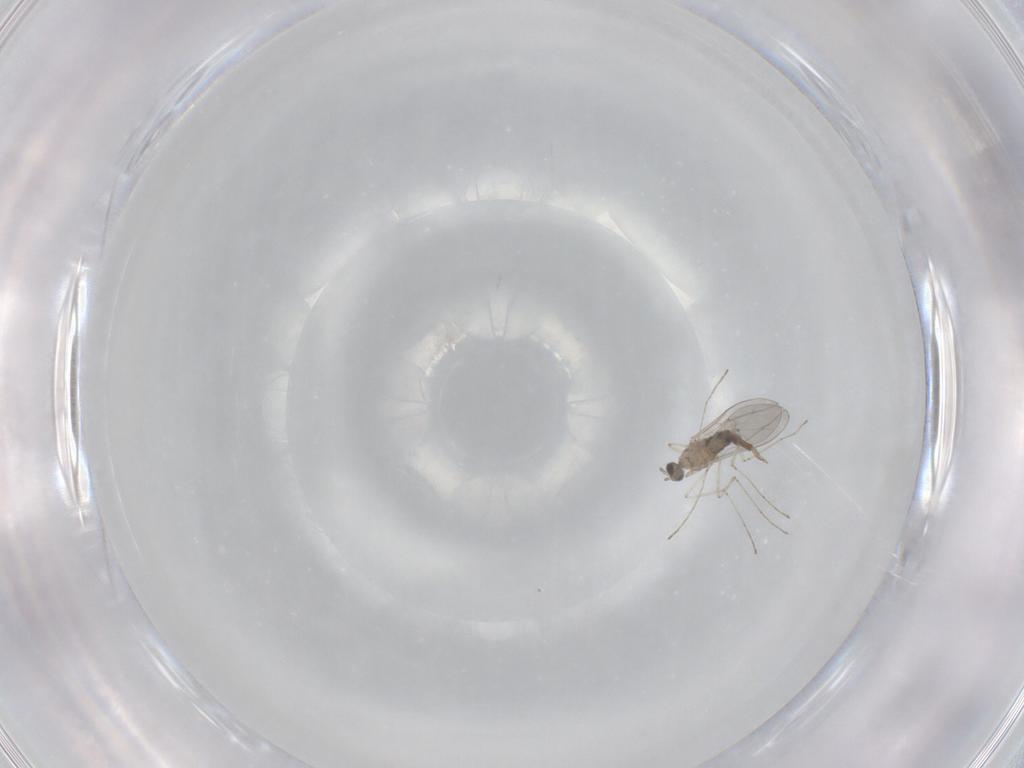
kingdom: Animalia
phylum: Arthropoda
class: Insecta
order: Diptera
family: Cecidomyiidae
